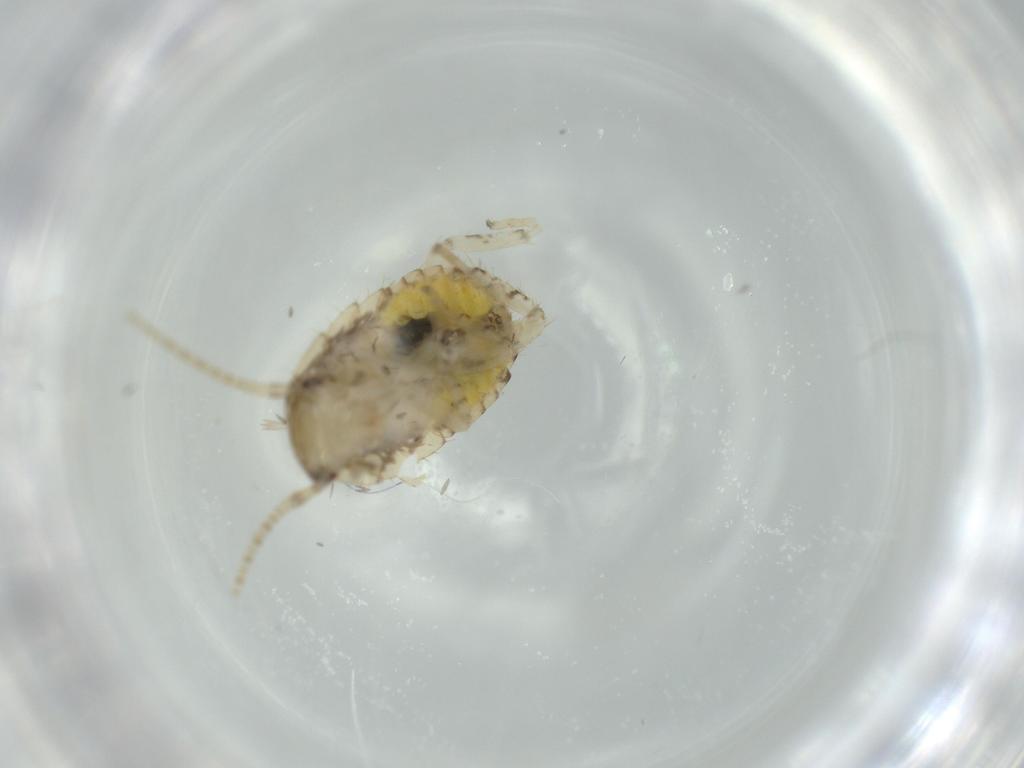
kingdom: Animalia
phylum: Arthropoda
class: Insecta
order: Blattodea
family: Ectobiidae
